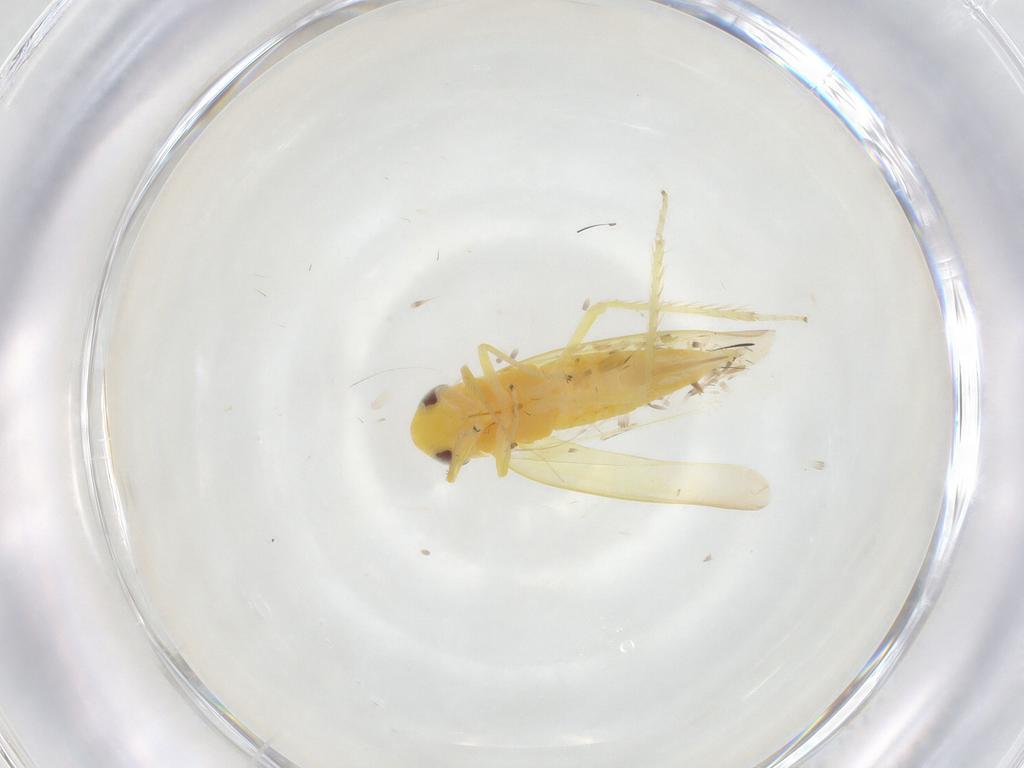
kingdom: Animalia
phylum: Arthropoda
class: Insecta
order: Hemiptera
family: Cicadellidae
